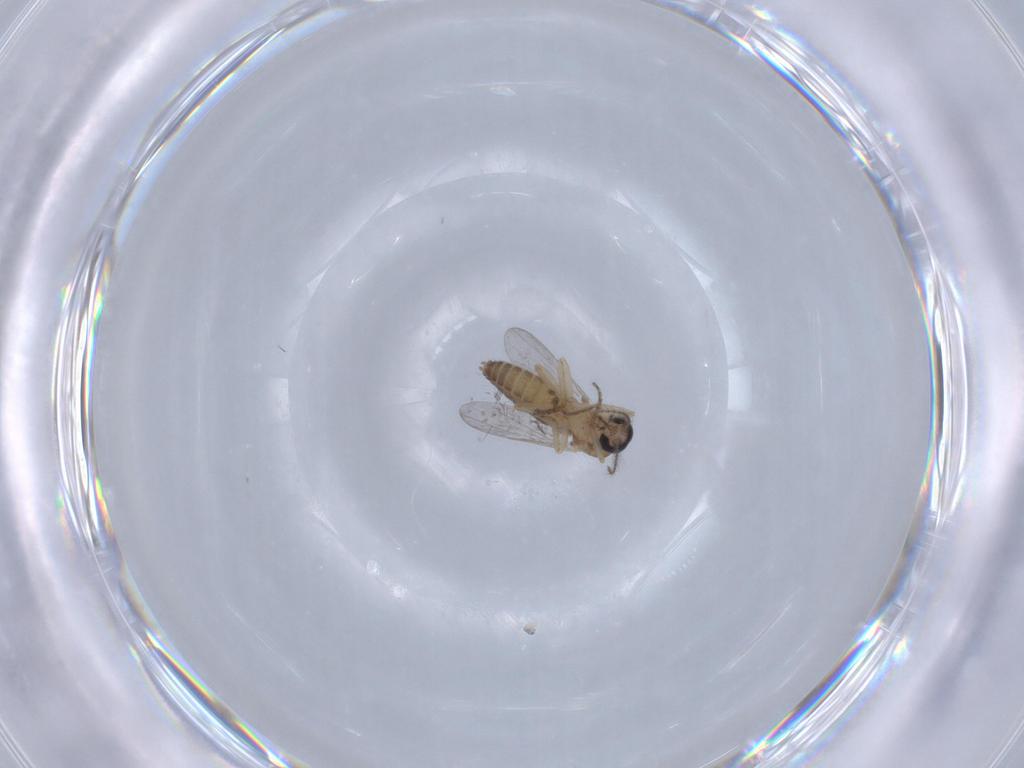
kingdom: Animalia
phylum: Arthropoda
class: Insecta
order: Diptera
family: Ceratopogonidae
